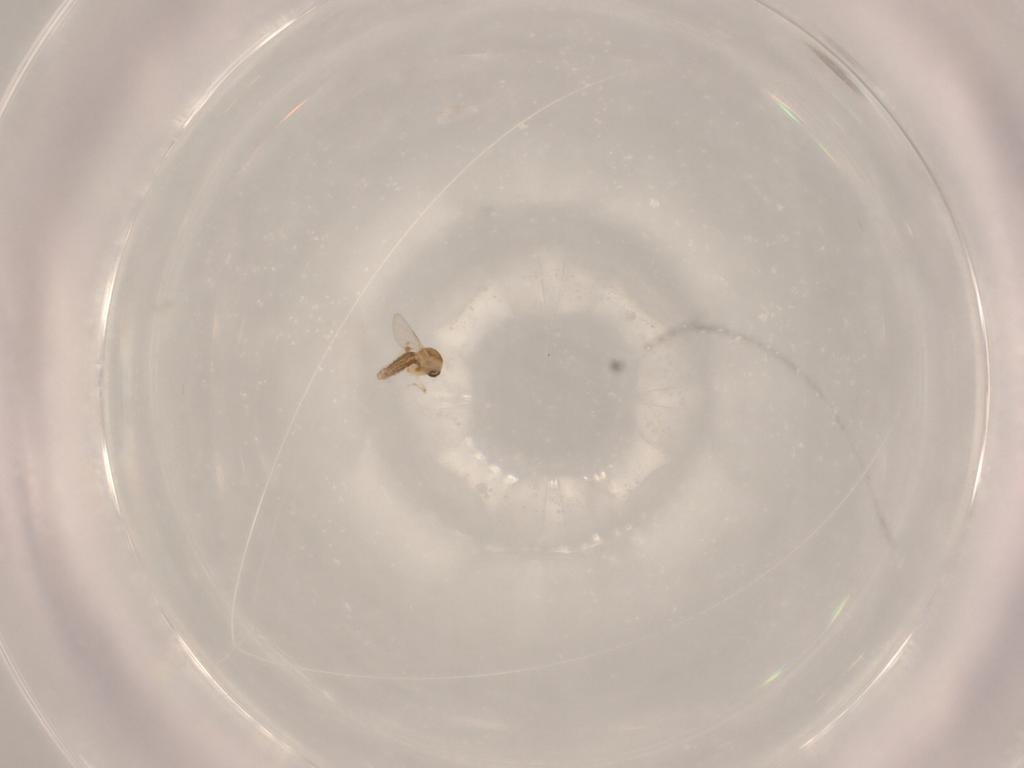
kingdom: Animalia
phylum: Arthropoda
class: Insecta
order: Diptera
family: Ceratopogonidae
